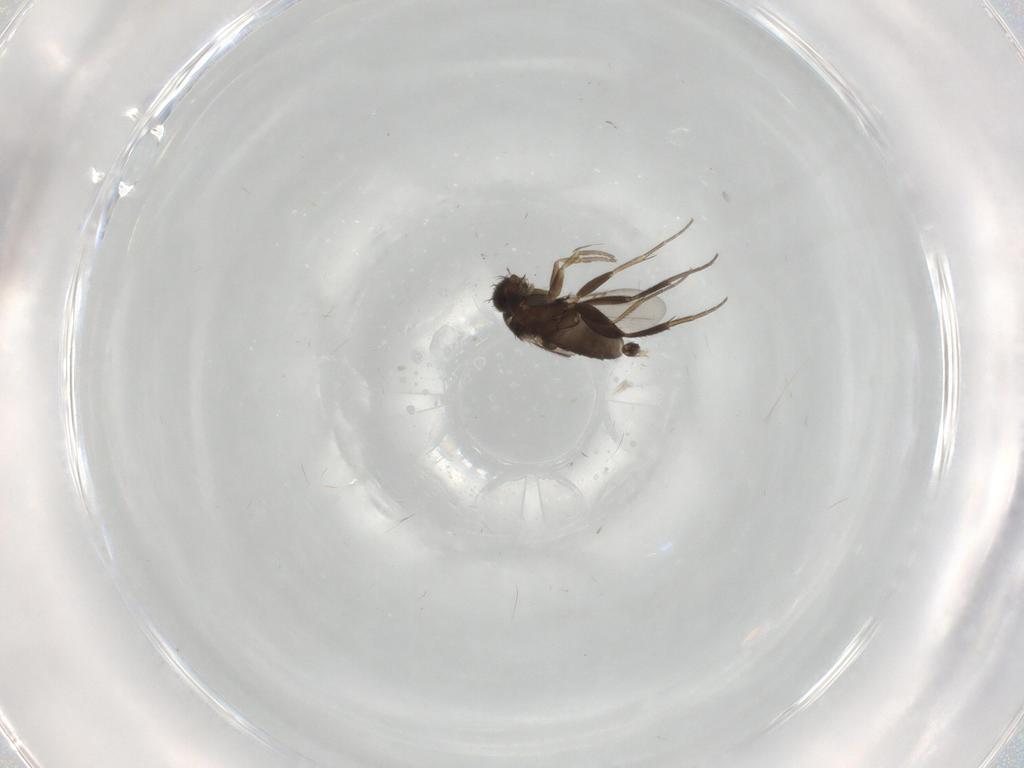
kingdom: Animalia
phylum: Arthropoda
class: Insecta
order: Diptera
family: Phoridae
